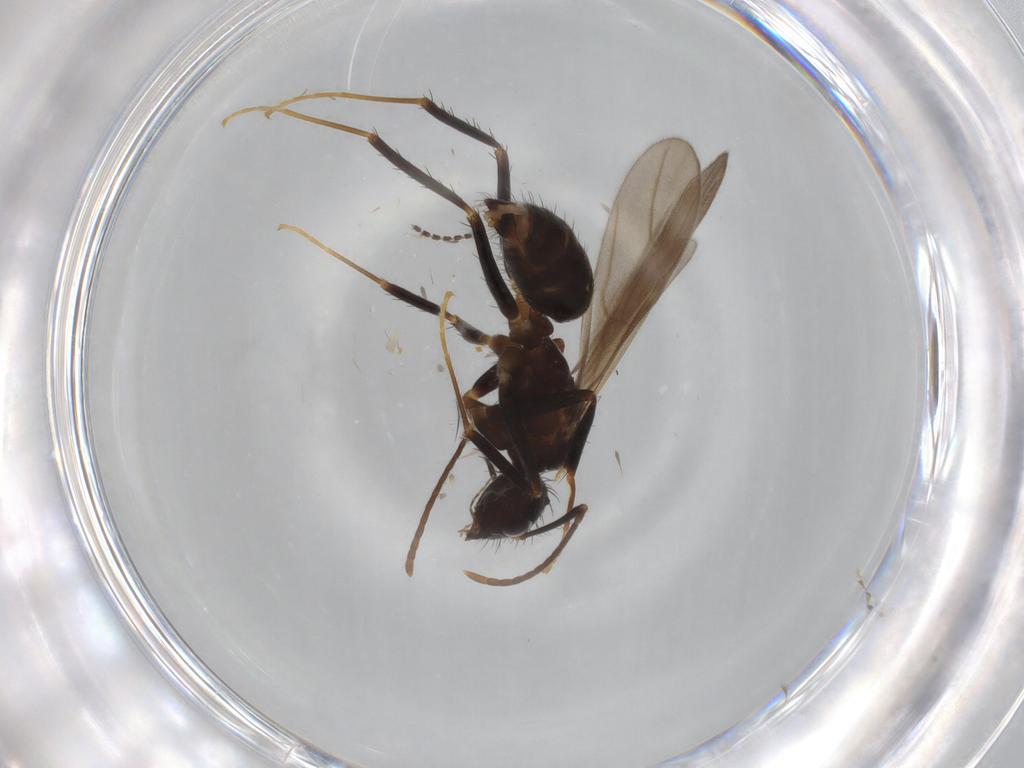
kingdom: Animalia
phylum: Arthropoda
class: Insecta
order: Hymenoptera
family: Formicidae
